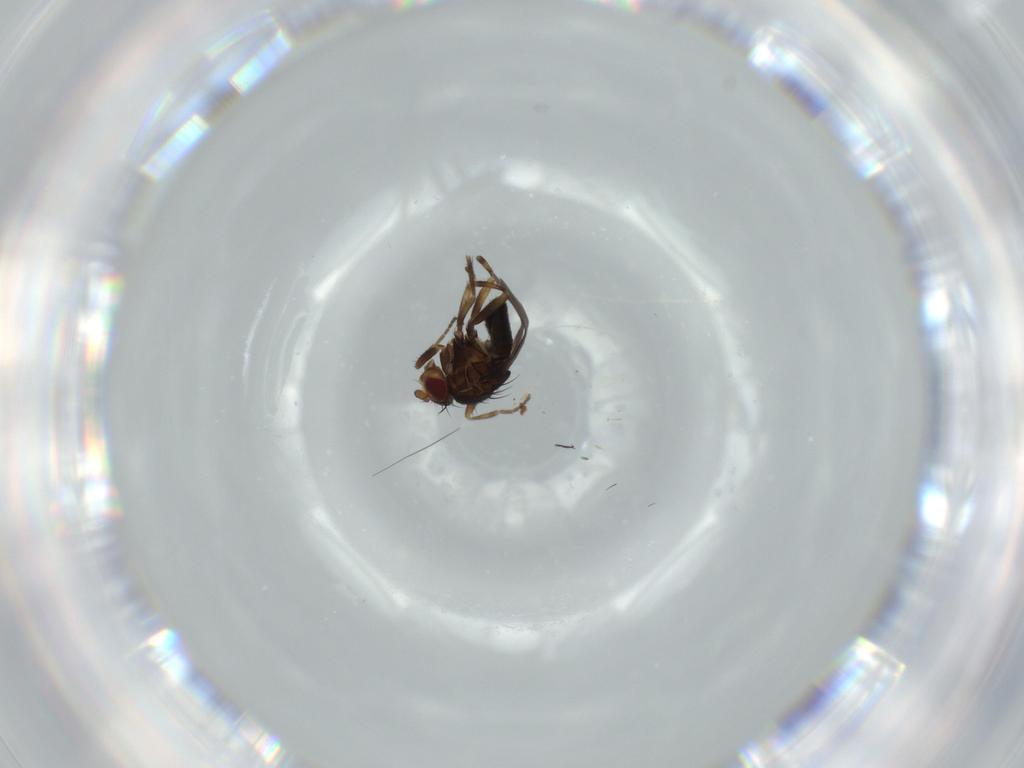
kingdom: Animalia
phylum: Arthropoda
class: Insecta
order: Diptera
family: Sphaeroceridae
